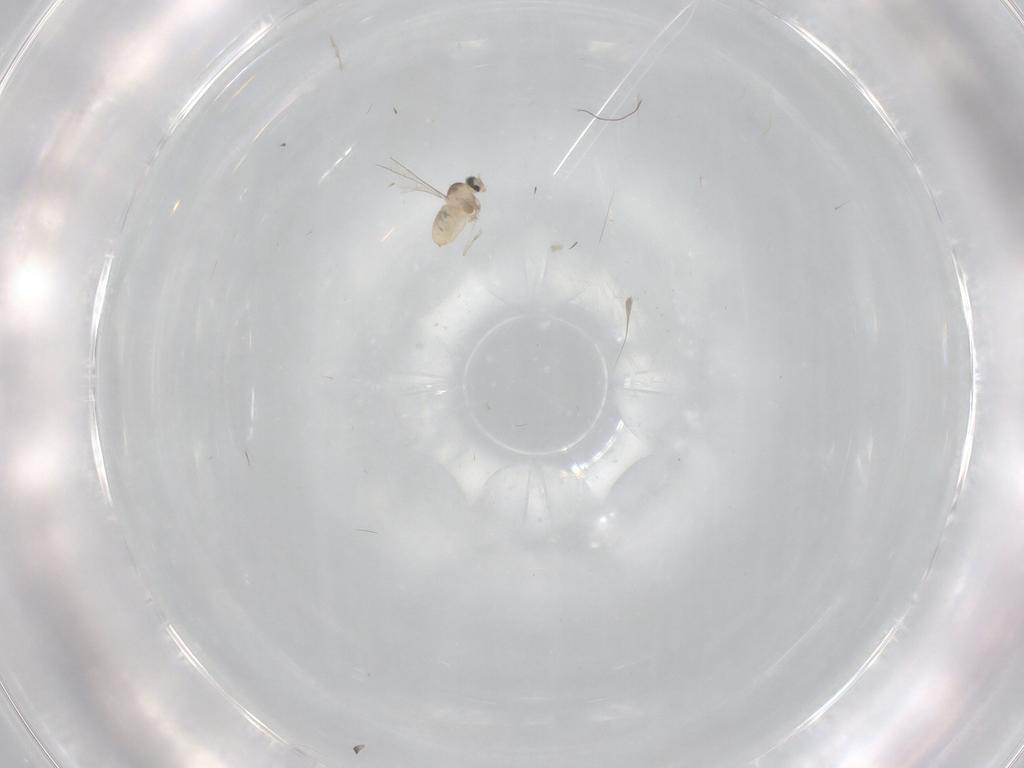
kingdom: Animalia
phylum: Arthropoda
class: Insecta
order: Diptera
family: Cecidomyiidae
